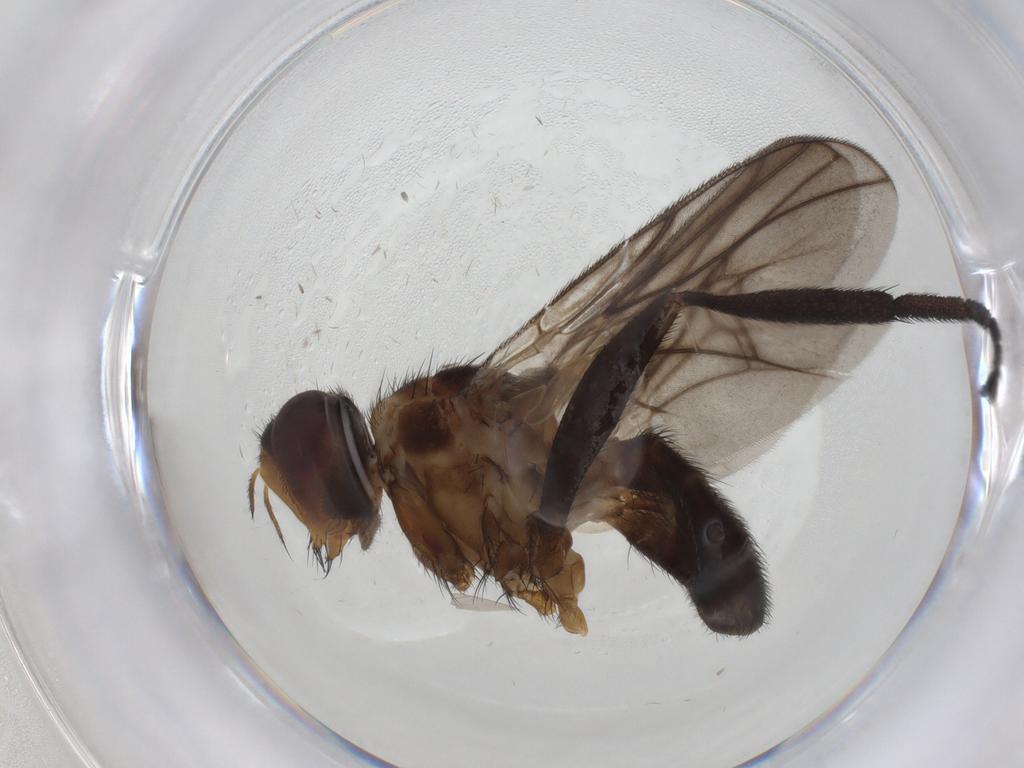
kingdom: Animalia
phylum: Arthropoda
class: Insecta
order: Diptera
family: Calliphoridae
